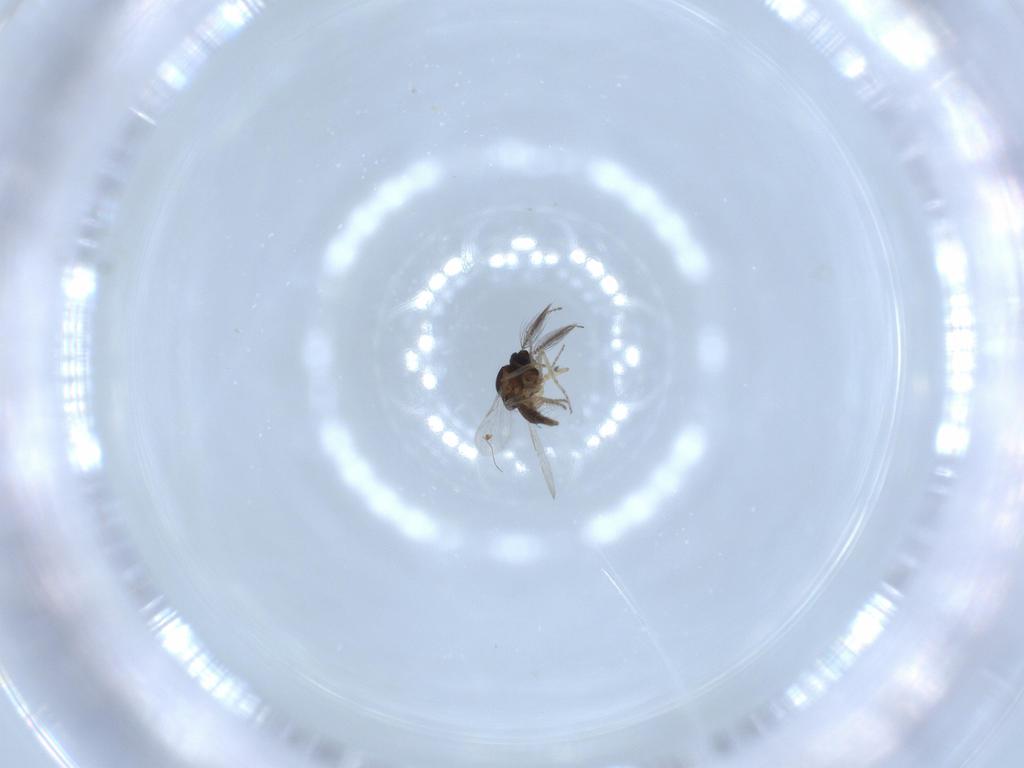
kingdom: Animalia
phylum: Arthropoda
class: Insecta
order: Diptera
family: Ceratopogonidae
